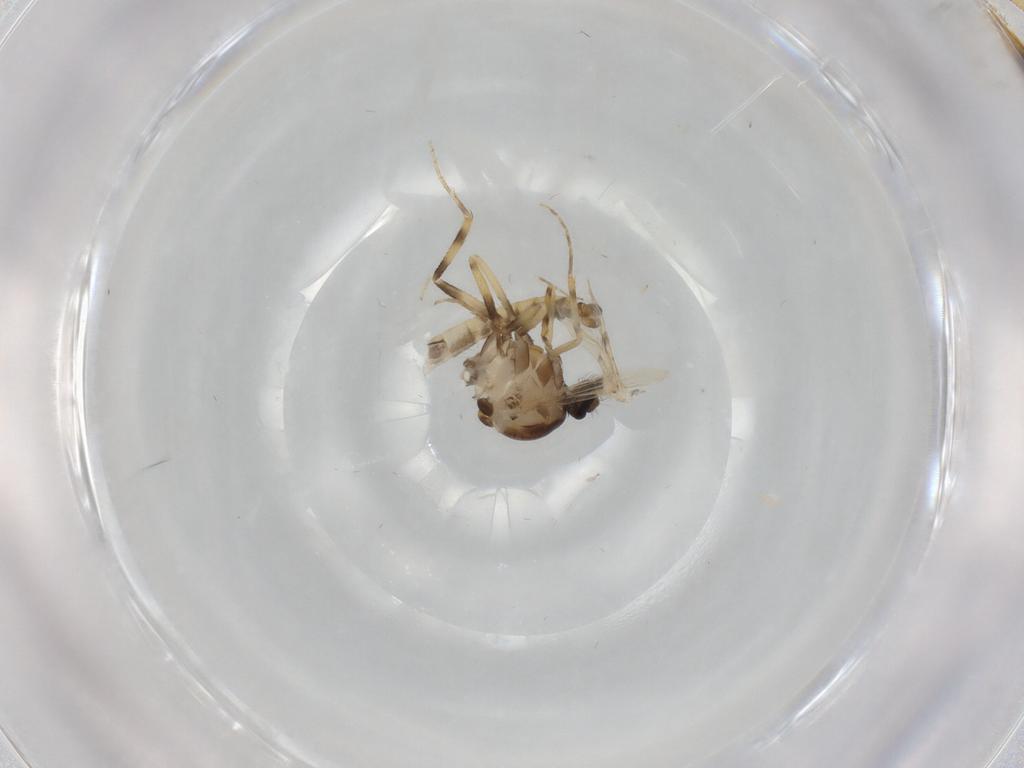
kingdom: Animalia
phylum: Arthropoda
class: Insecta
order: Diptera
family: Ceratopogonidae
